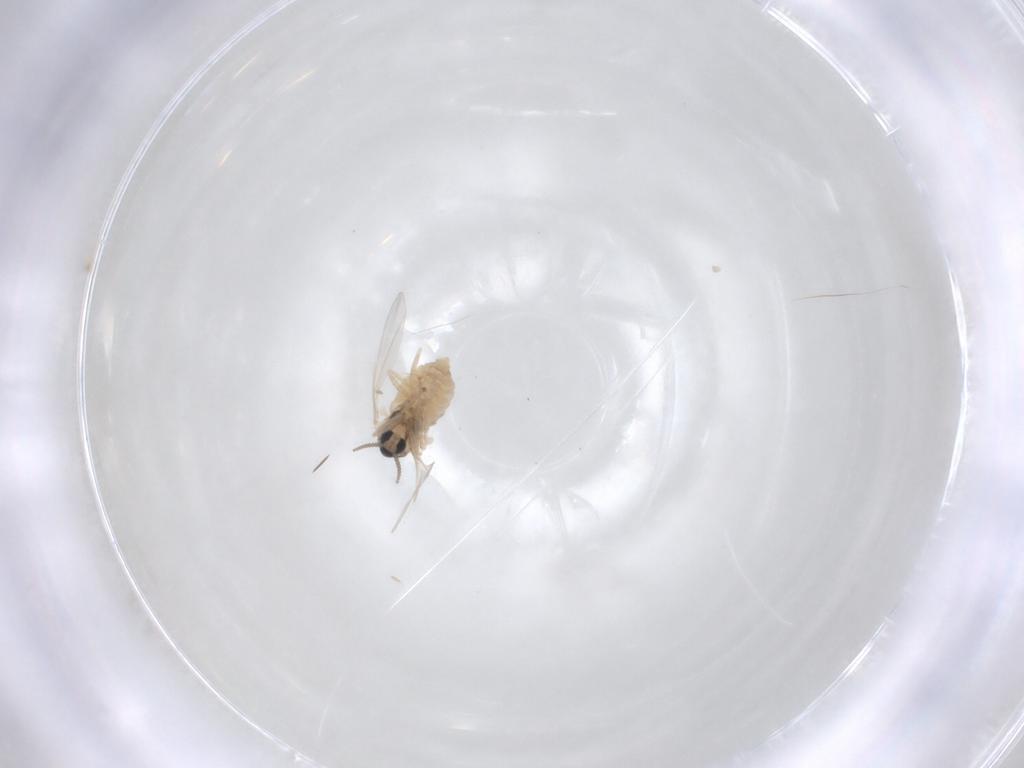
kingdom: Animalia
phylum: Arthropoda
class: Insecta
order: Diptera
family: Cecidomyiidae
